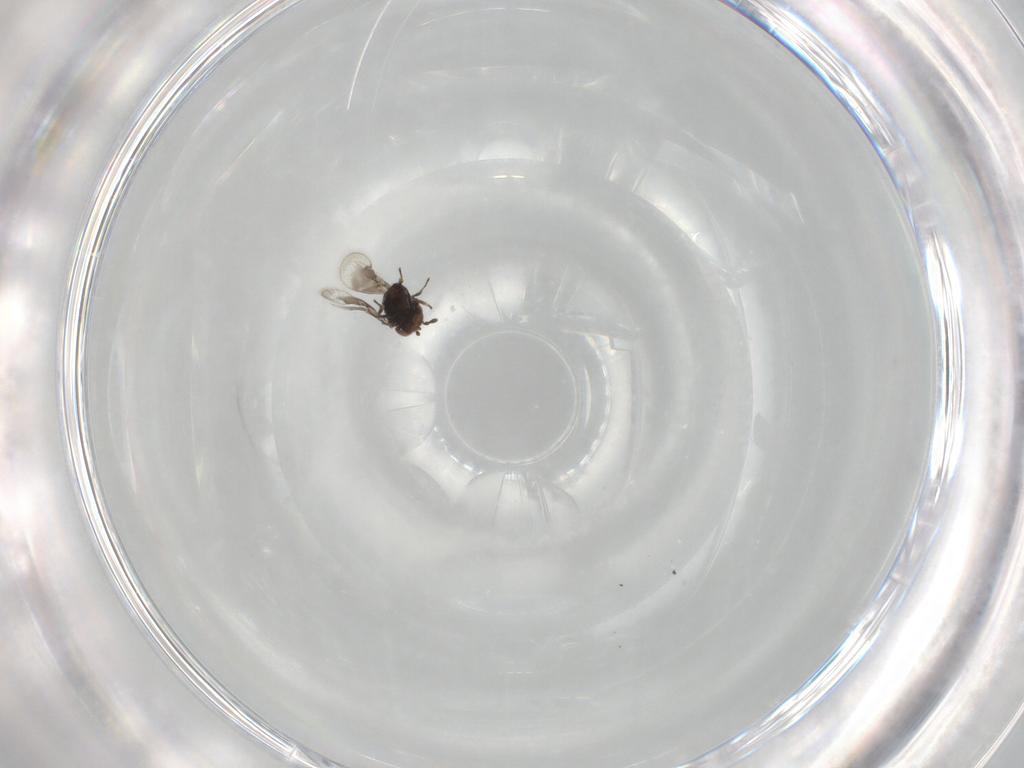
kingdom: Animalia
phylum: Arthropoda
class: Insecta
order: Hymenoptera
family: Eulophidae
